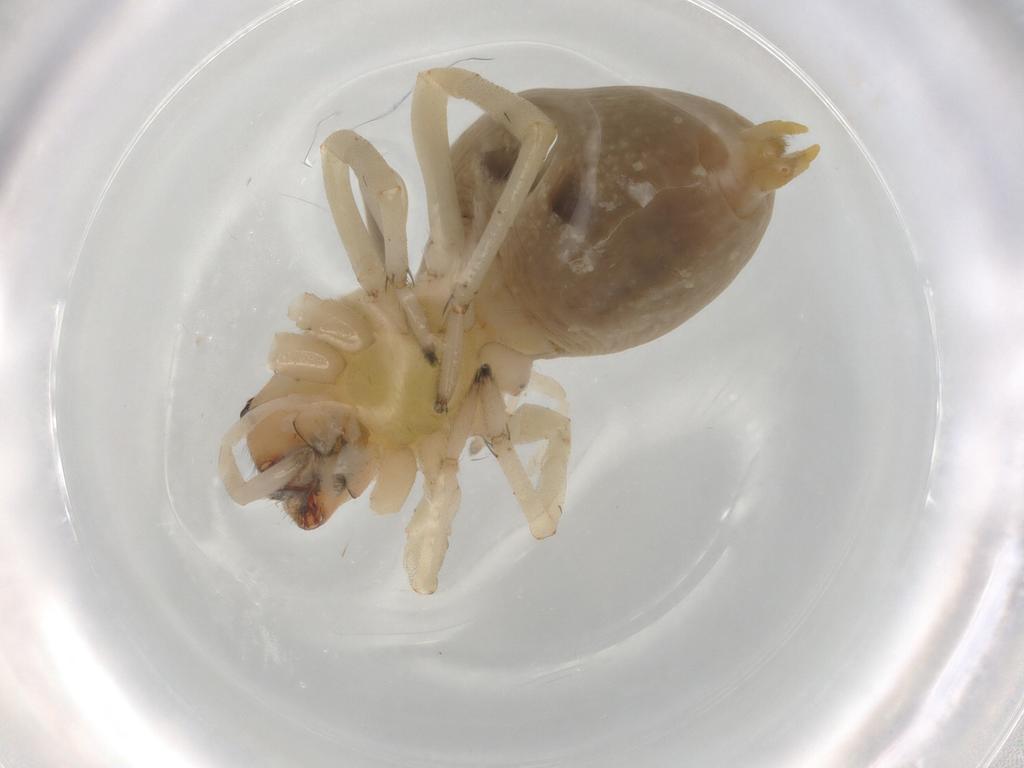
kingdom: Animalia
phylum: Arthropoda
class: Arachnida
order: Araneae
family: Cheiracanthiidae
